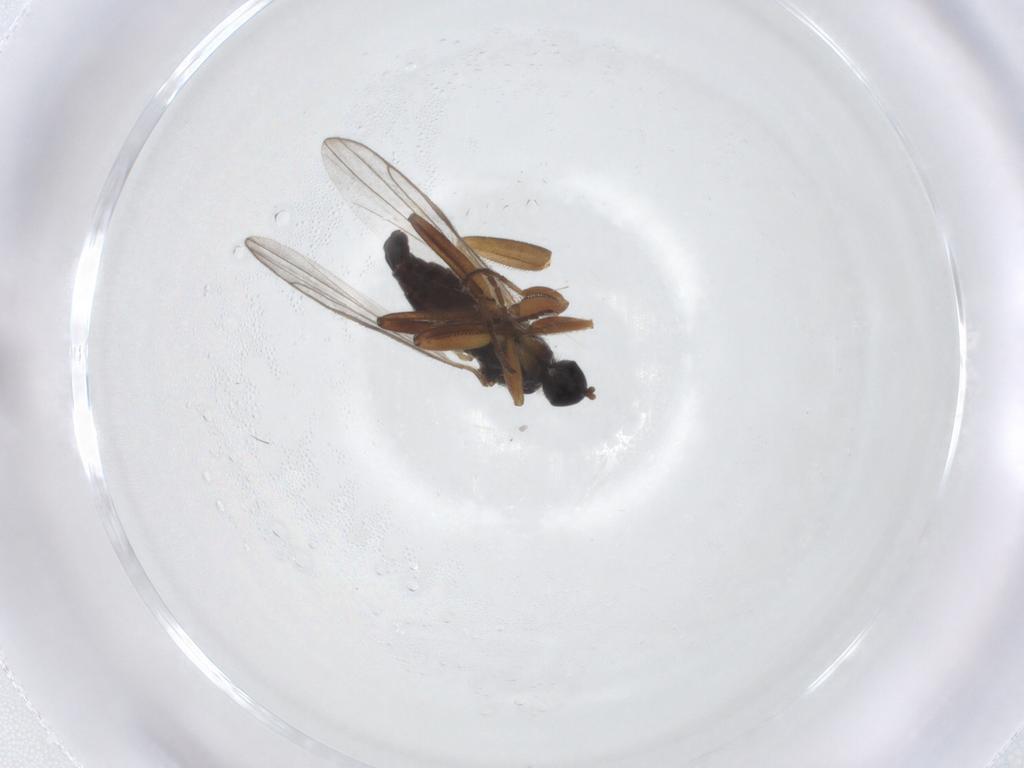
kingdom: Animalia
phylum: Arthropoda
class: Insecta
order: Diptera
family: Hybotidae
